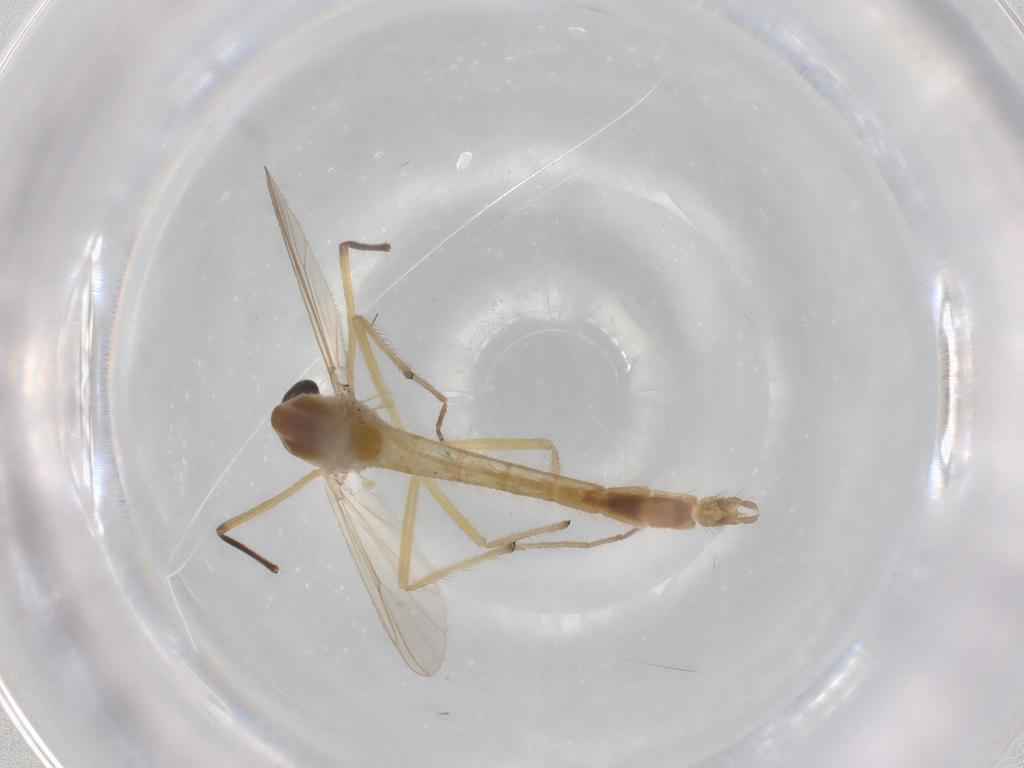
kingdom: Animalia
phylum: Arthropoda
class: Insecta
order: Diptera
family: Chironomidae
